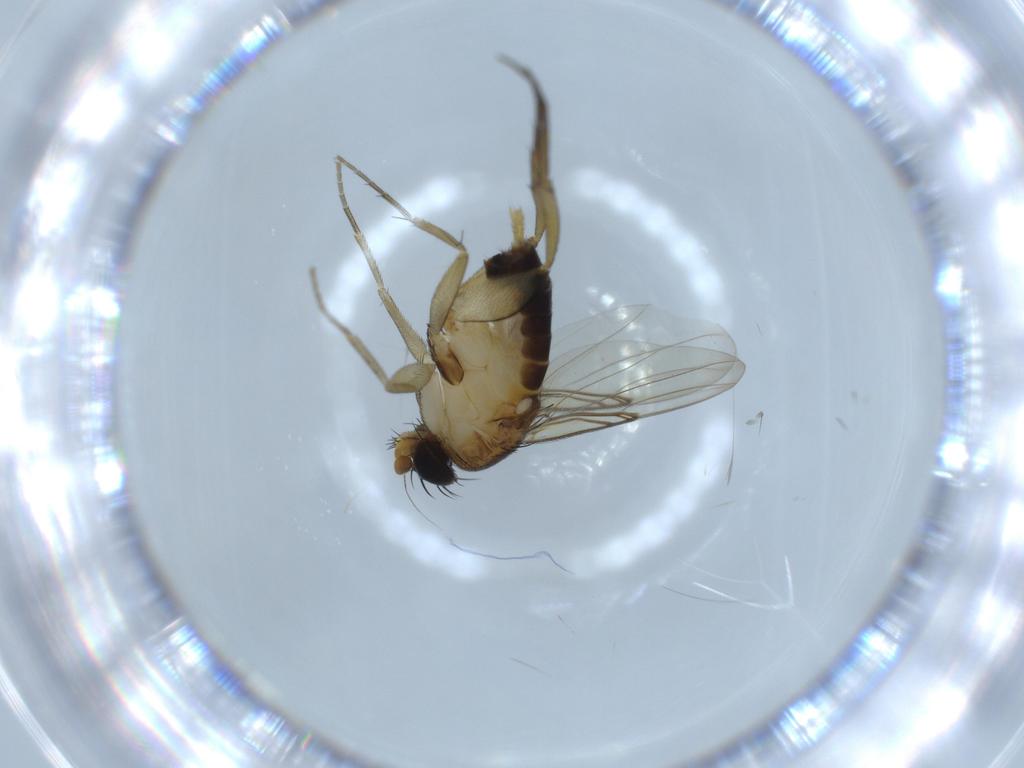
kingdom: Animalia
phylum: Arthropoda
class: Insecta
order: Diptera
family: Phoridae
